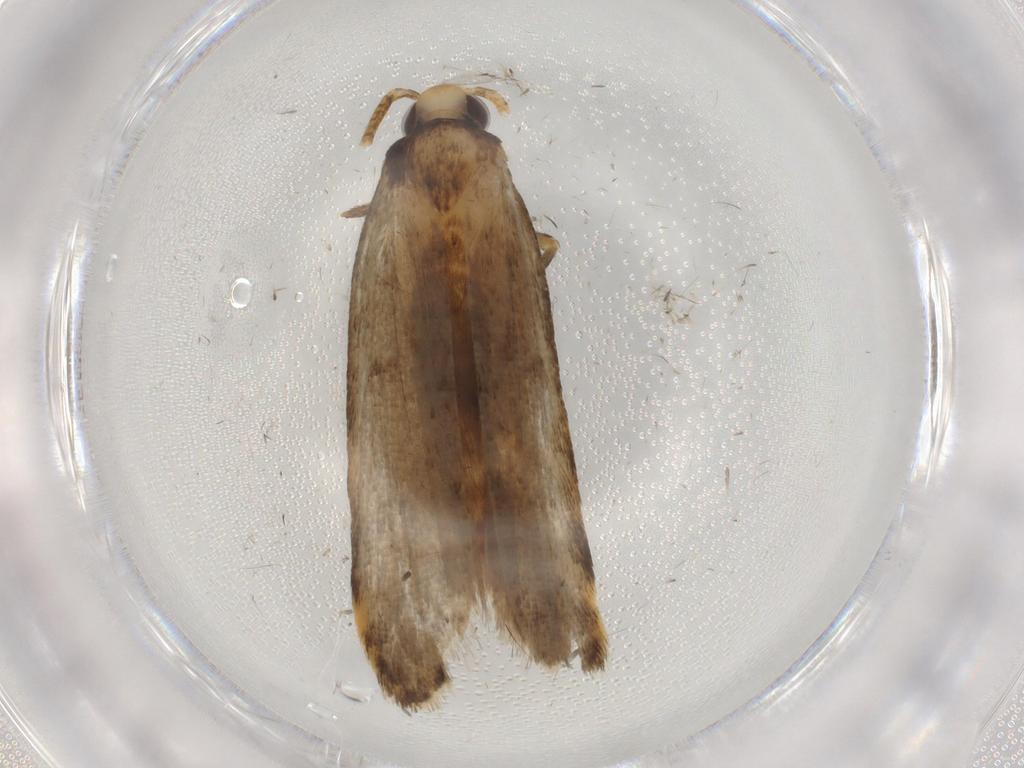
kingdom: Animalia
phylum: Arthropoda
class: Insecta
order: Lepidoptera
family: Autostichidae
